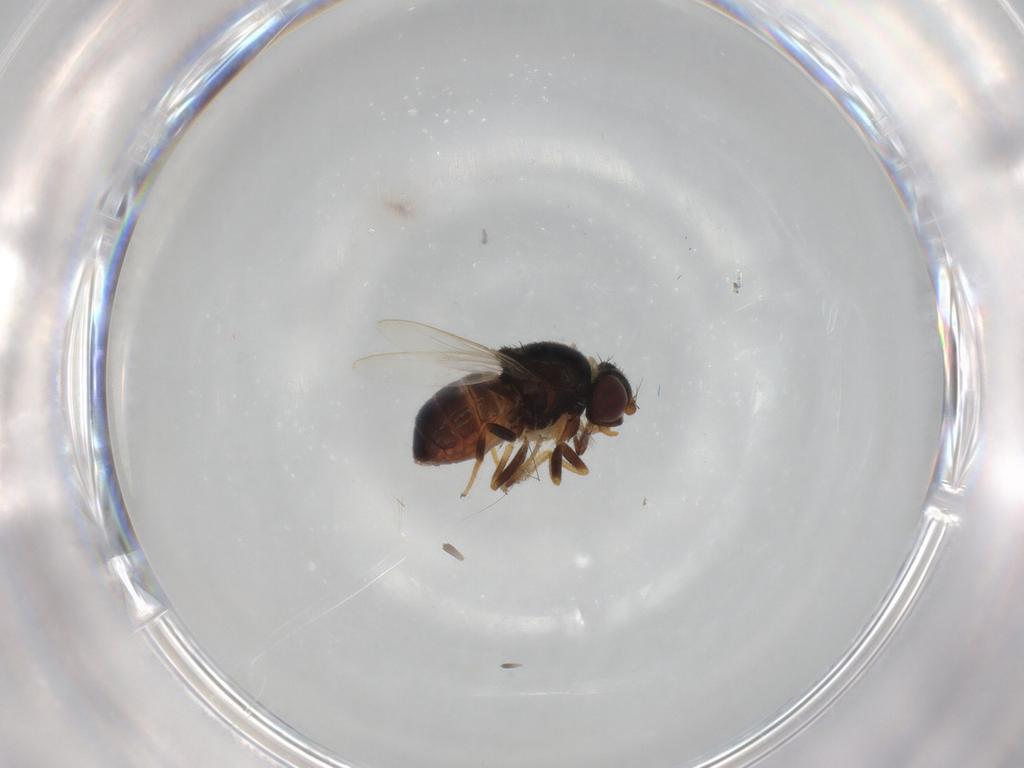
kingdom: Animalia
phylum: Arthropoda
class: Insecta
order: Diptera
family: Chloropidae
